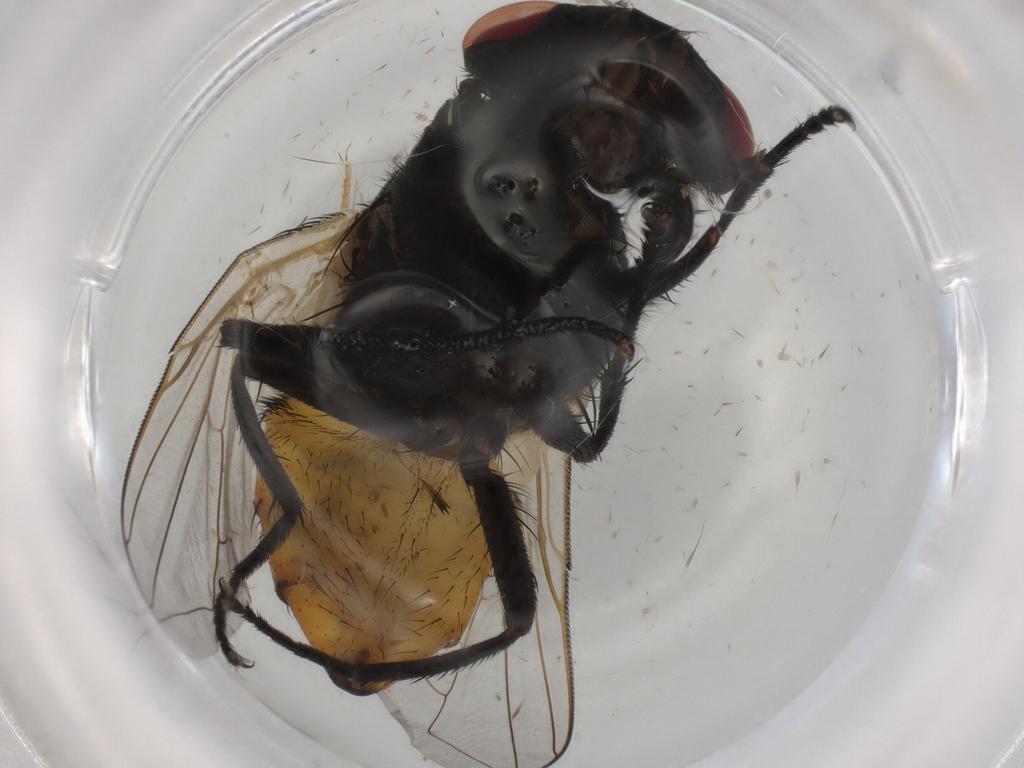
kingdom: Animalia
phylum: Arthropoda
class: Insecta
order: Diptera
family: Muscidae
